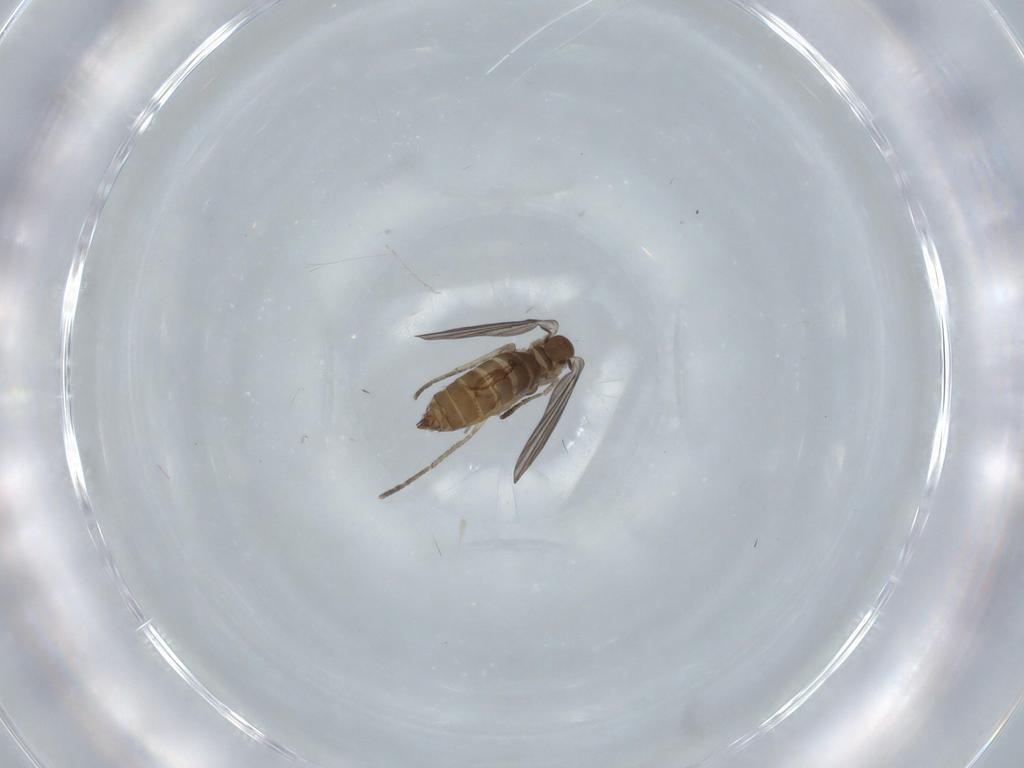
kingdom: Animalia
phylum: Arthropoda
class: Insecta
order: Diptera
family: Psychodidae
